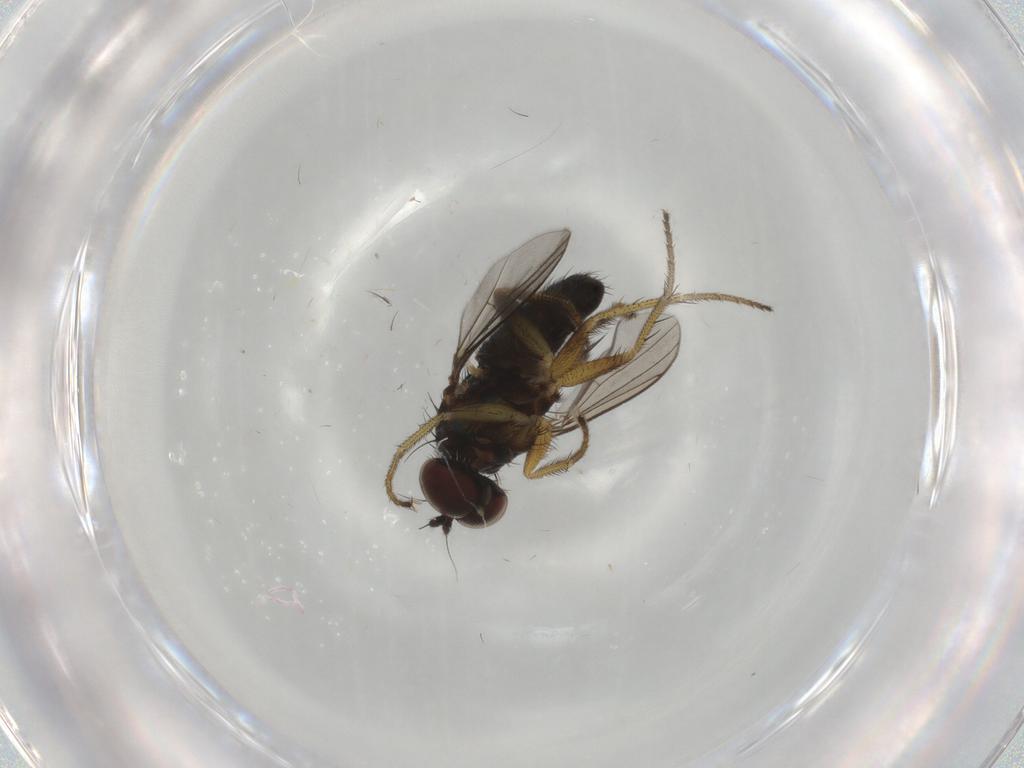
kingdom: Animalia
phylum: Arthropoda
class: Insecta
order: Diptera
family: Dolichopodidae
